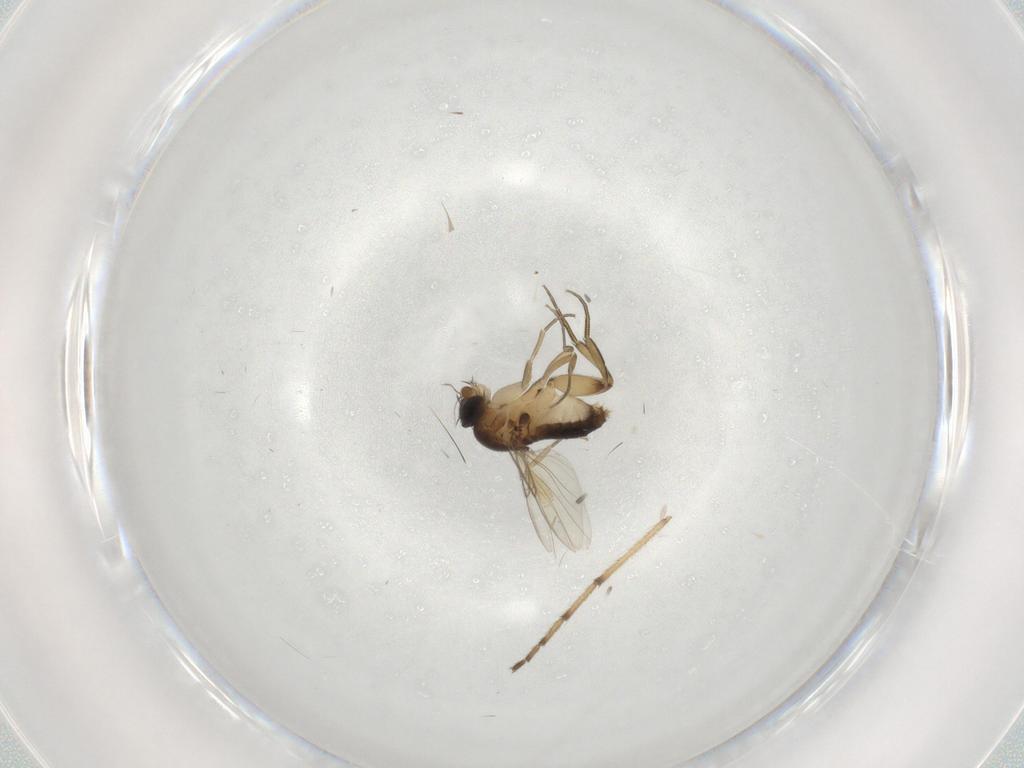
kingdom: Animalia
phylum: Arthropoda
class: Insecta
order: Diptera
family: Phoridae
